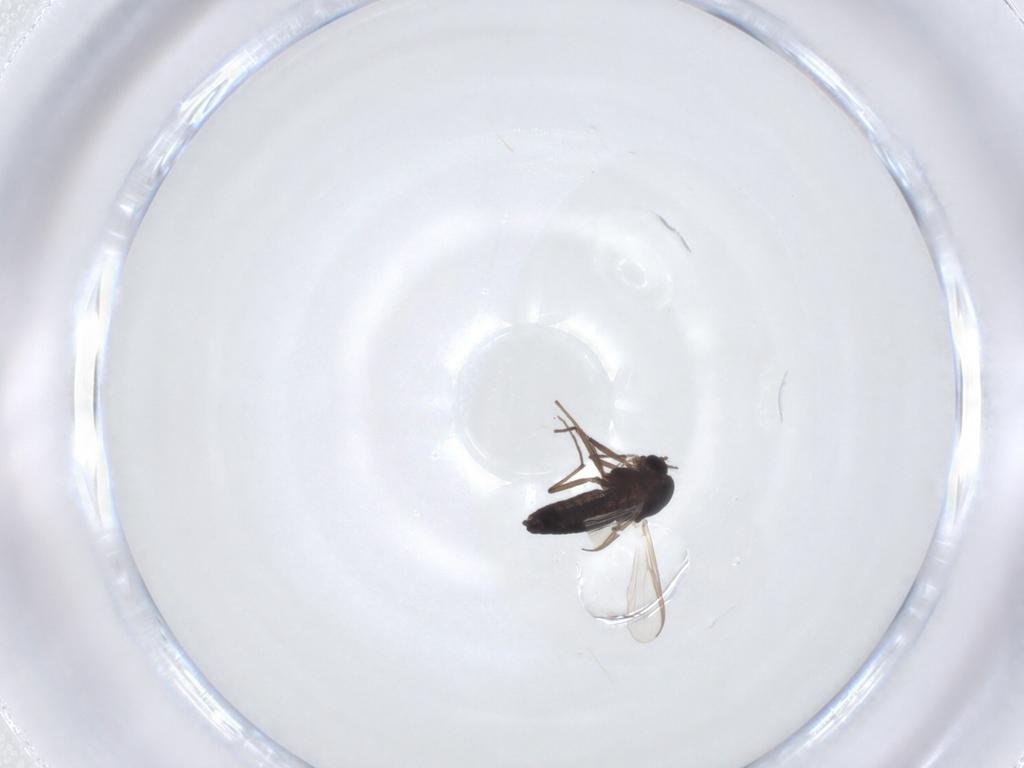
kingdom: Animalia
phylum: Arthropoda
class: Insecta
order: Diptera
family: Chironomidae
